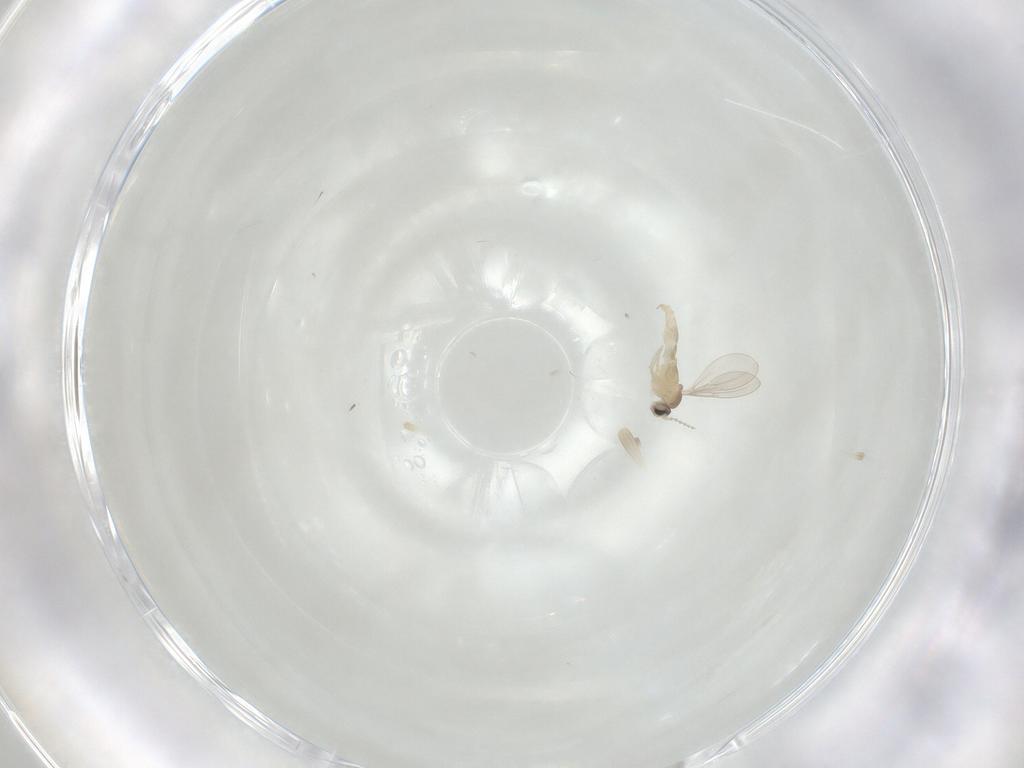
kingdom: Animalia
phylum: Arthropoda
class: Insecta
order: Diptera
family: Cecidomyiidae
